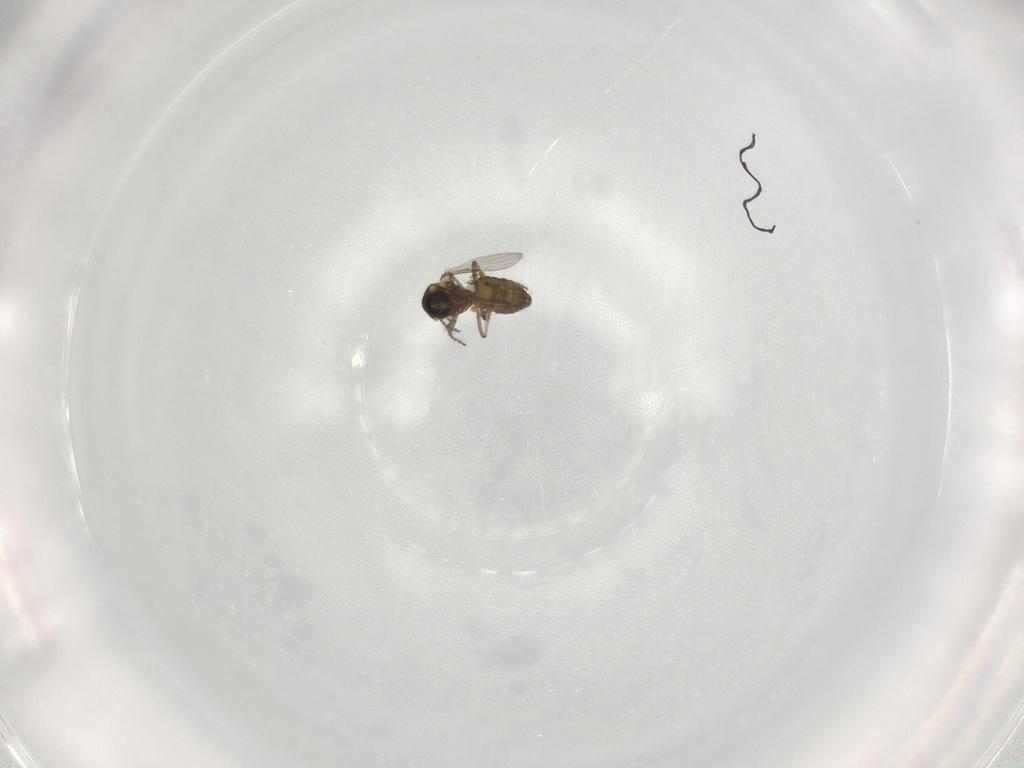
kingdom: Animalia
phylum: Arthropoda
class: Insecta
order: Diptera
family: Ceratopogonidae
